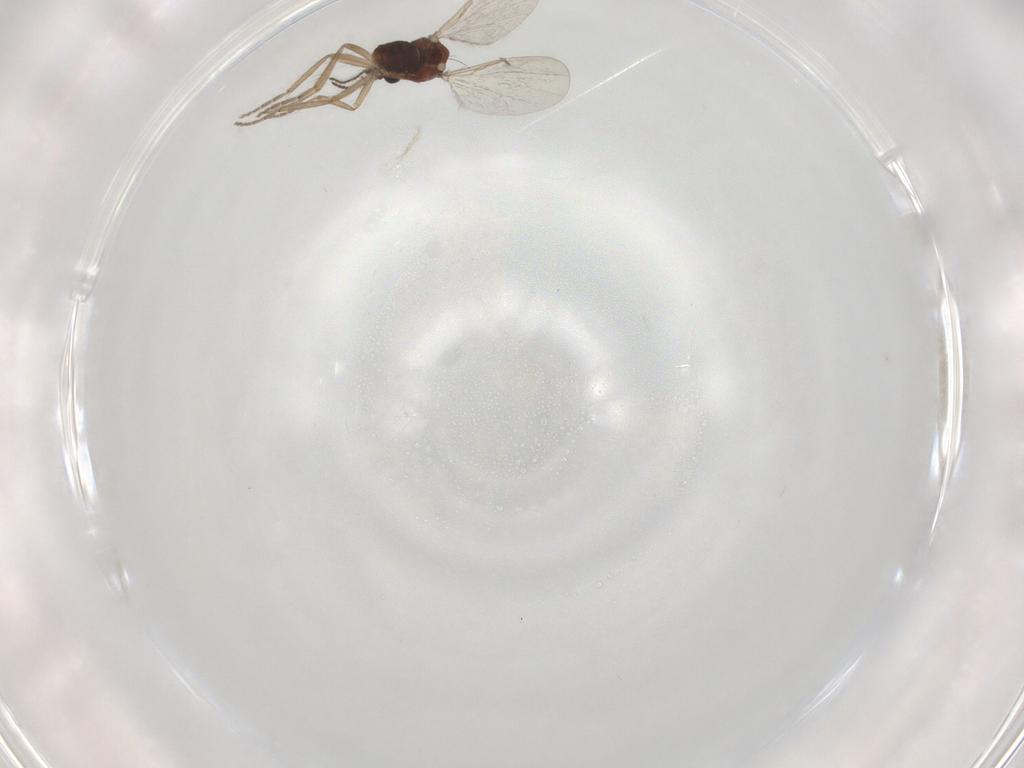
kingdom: Animalia
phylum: Arthropoda
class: Insecta
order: Diptera
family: Ceratopogonidae
